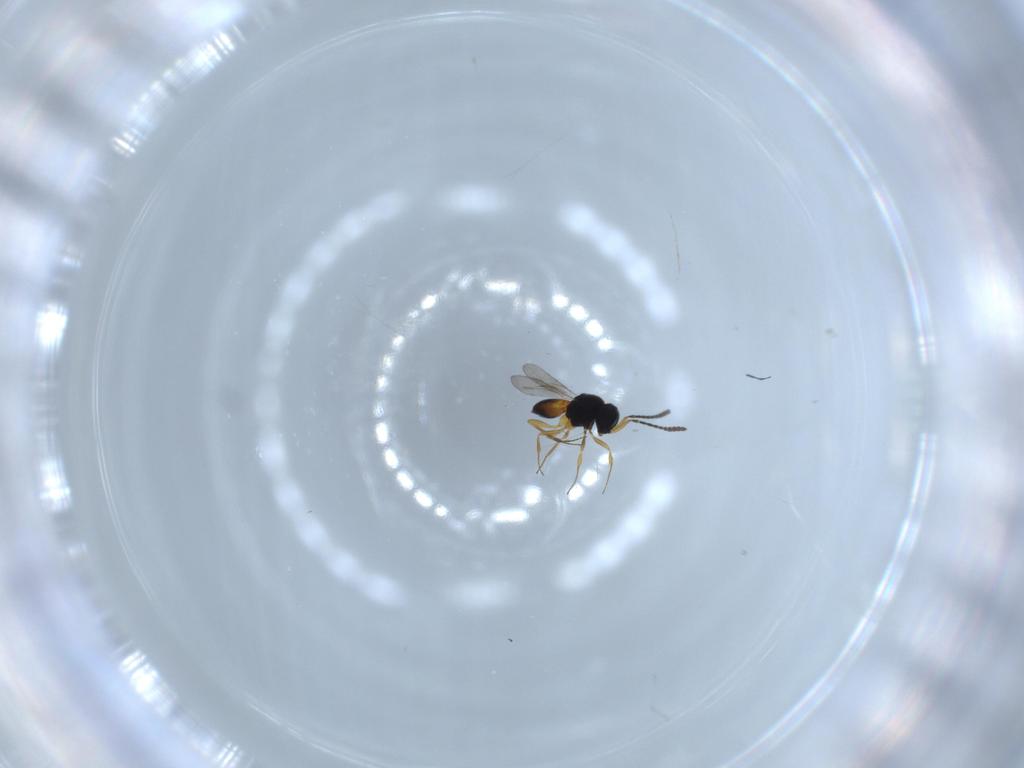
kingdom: Animalia
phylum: Arthropoda
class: Insecta
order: Hymenoptera
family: Scelionidae
